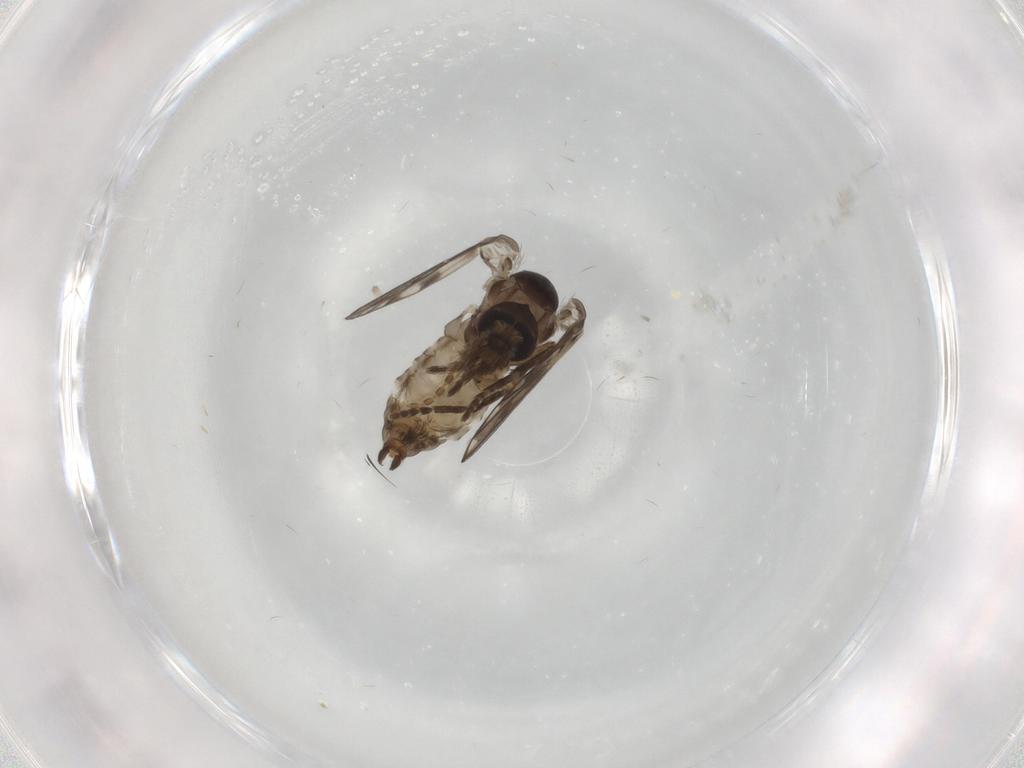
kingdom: Animalia
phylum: Arthropoda
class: Insecta
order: Diptera
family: Psychodidae
